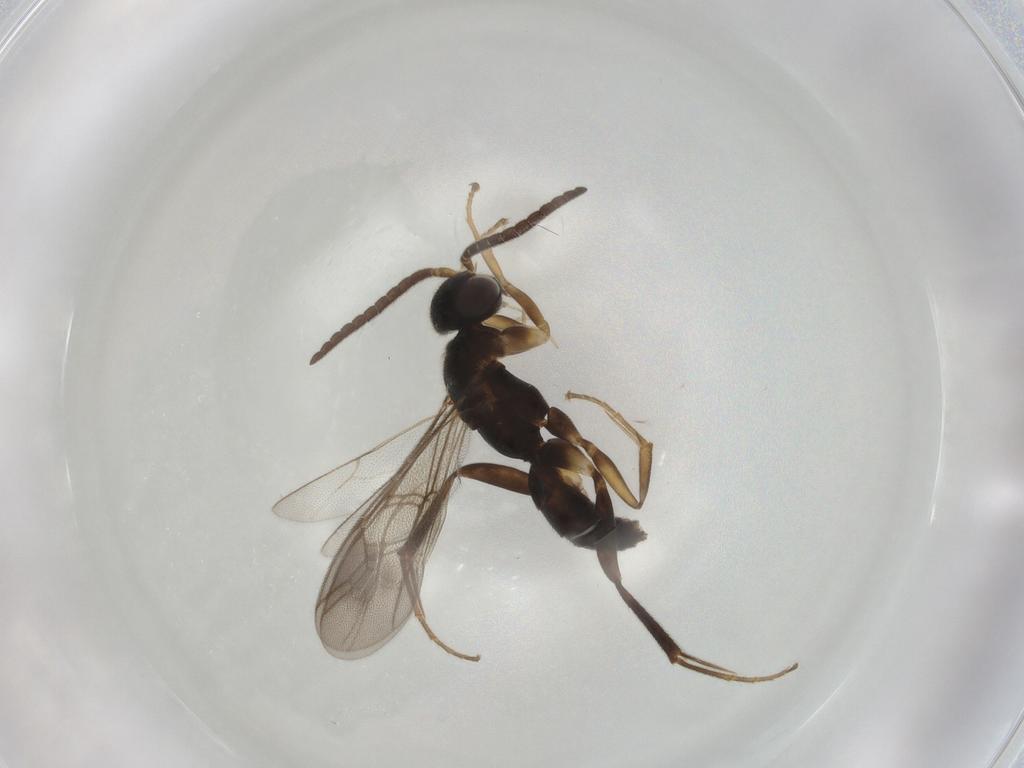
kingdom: Animalia
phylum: Arthropoda
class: Insecta
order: Hymenoptera
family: Pompilidae
